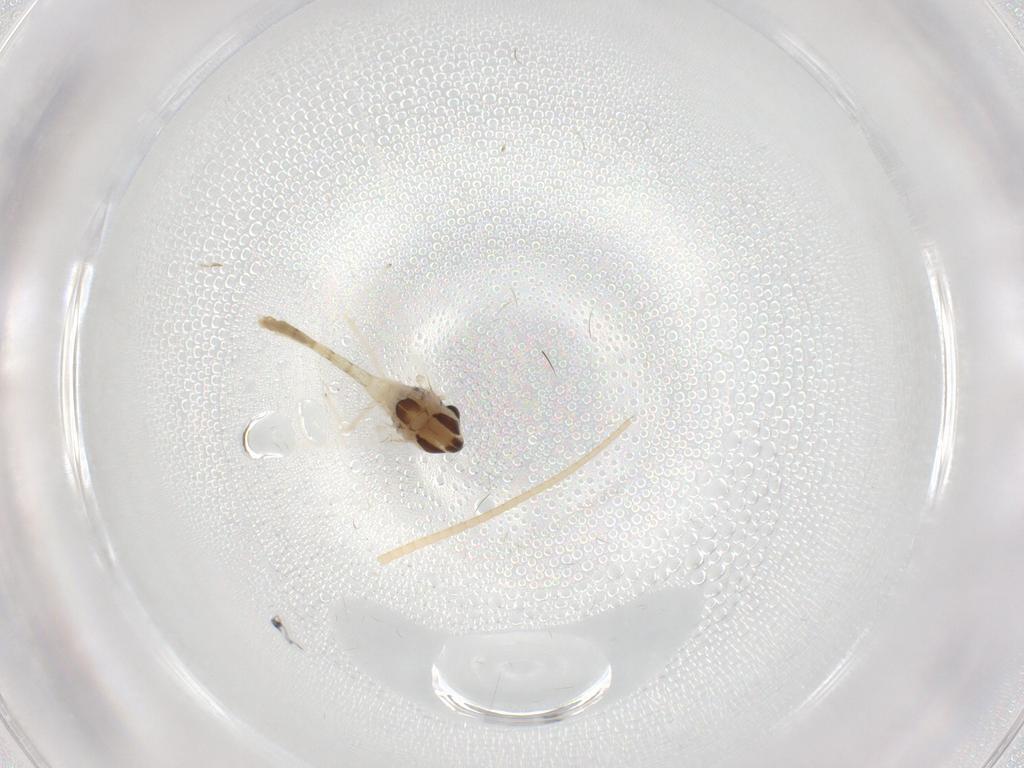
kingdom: Animalia
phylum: Arthropoda
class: Insecta
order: Diptera
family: Chironomidae
